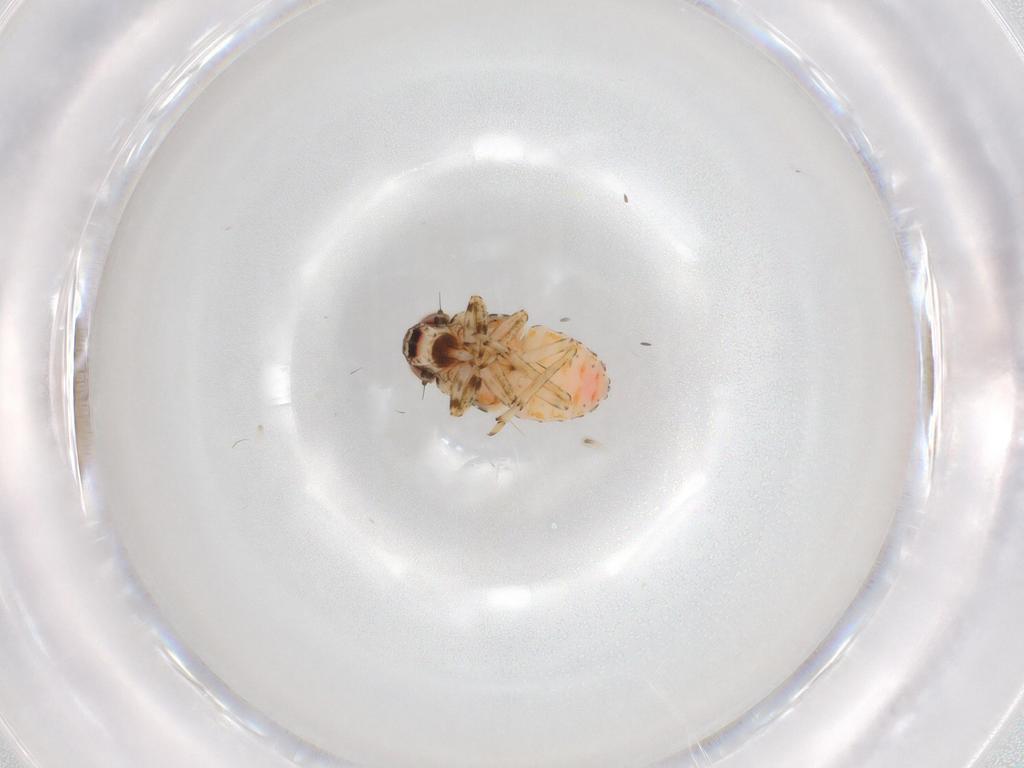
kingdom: Animalia
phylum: Arthropoda
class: Insecta
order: Hemiptera
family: Issidae
